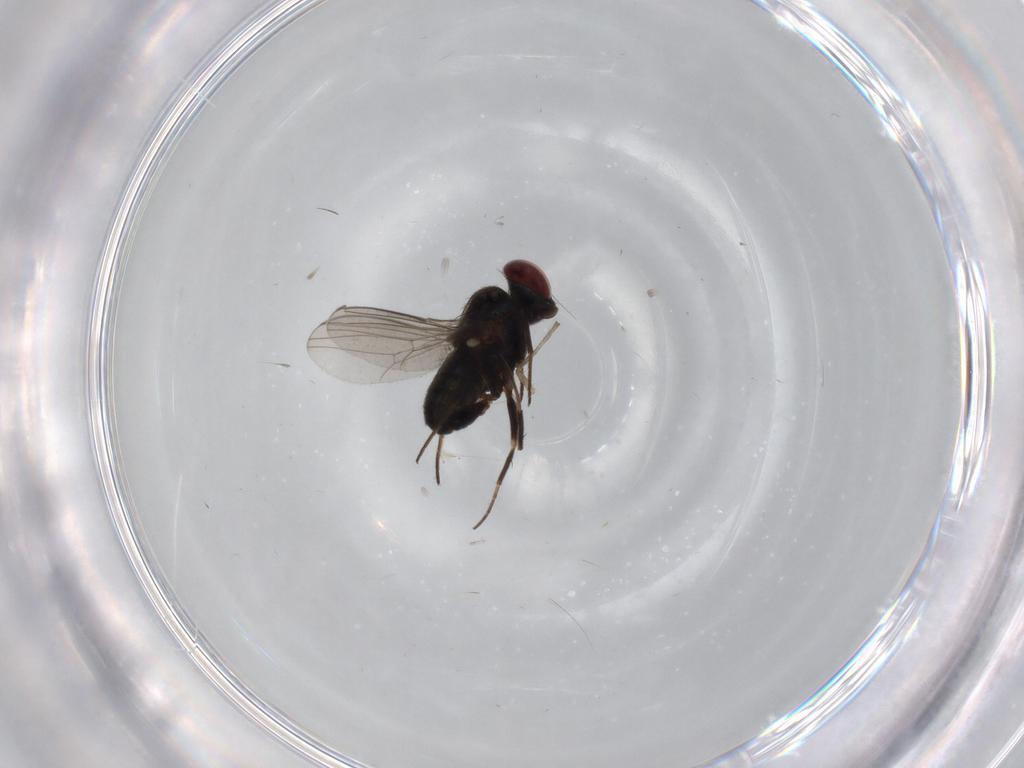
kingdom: Animalia
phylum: Arthropoda
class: Insecta
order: Diptera
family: Dolichopodidae
